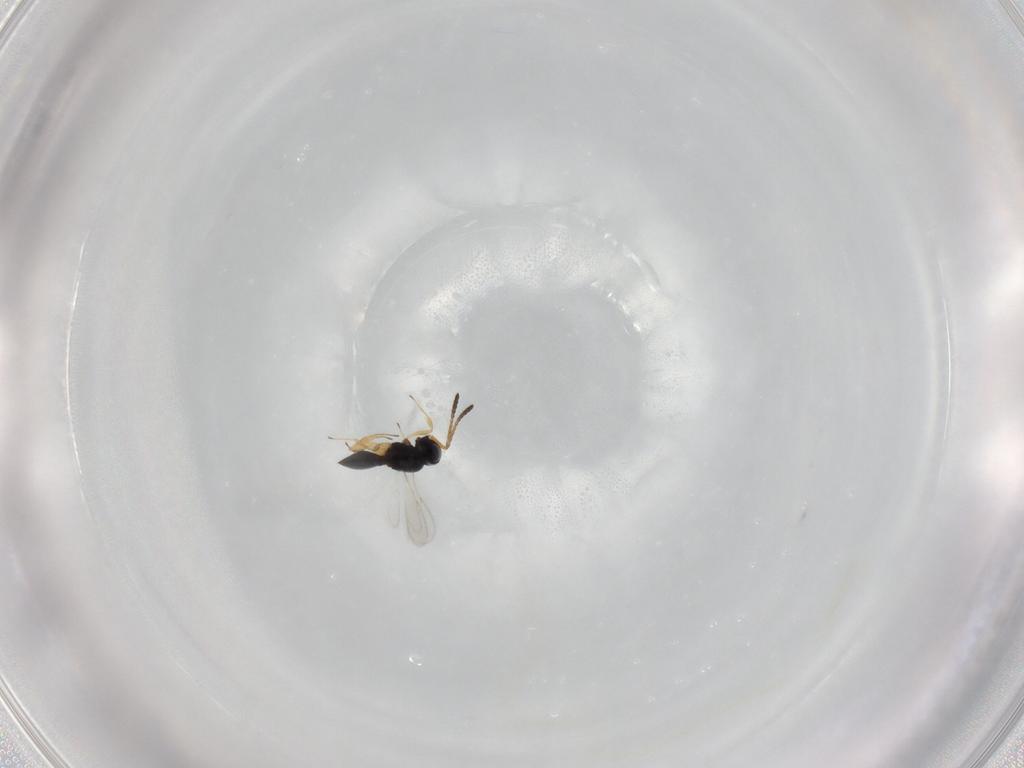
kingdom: Animalia
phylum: Arthropoda
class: Insecta
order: Hymenoptera
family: Scelionidae
